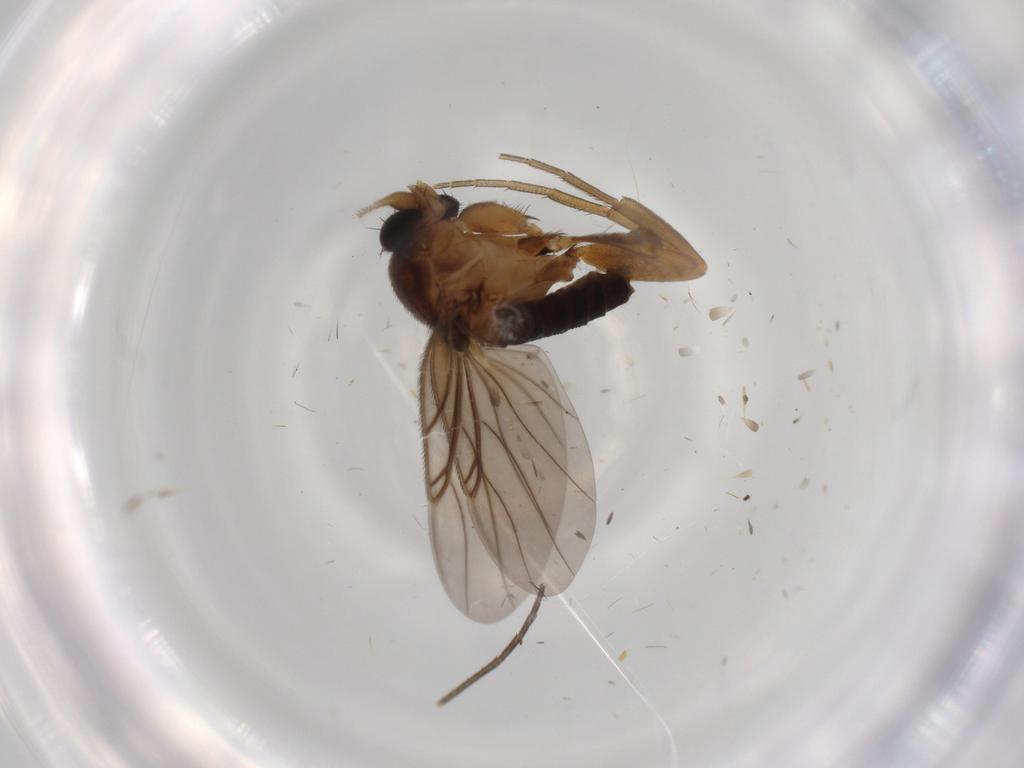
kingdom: Animalia
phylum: Arthropoda
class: Insecta
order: Diptera
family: Mycetophilidae
